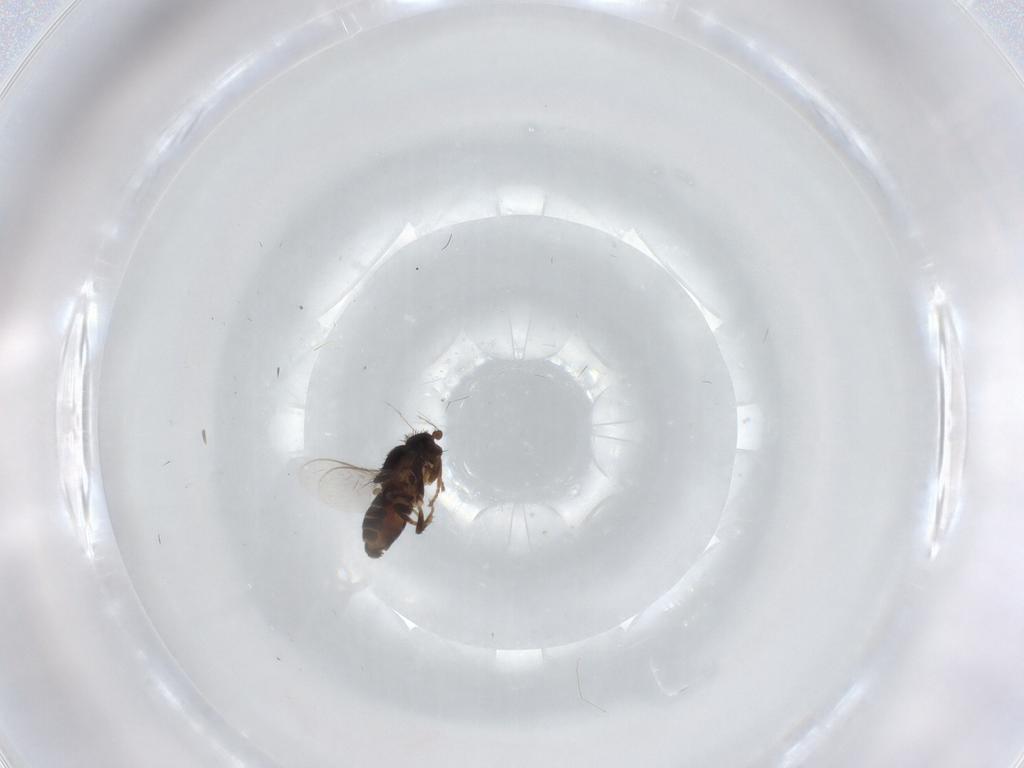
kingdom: Animalia
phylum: Arthropoda
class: Insecta
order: Diptera
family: Sphaeroceridae
